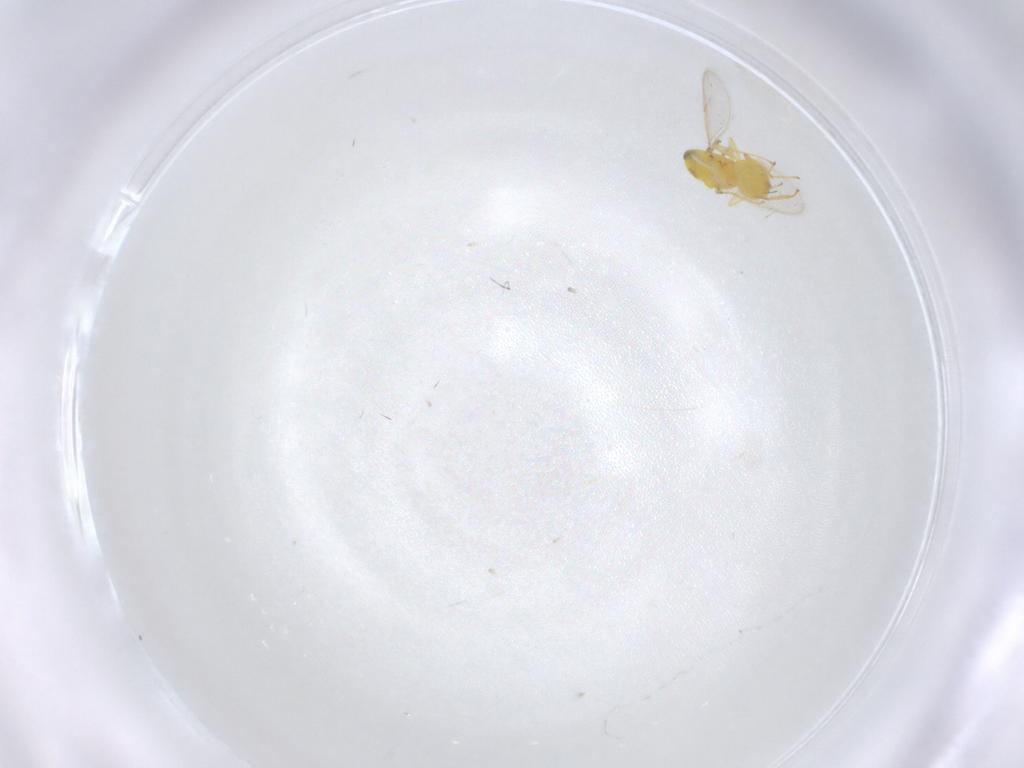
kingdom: Animalia
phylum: Arthropoda
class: Insecta
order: Hymenoptera
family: Eulophidae
